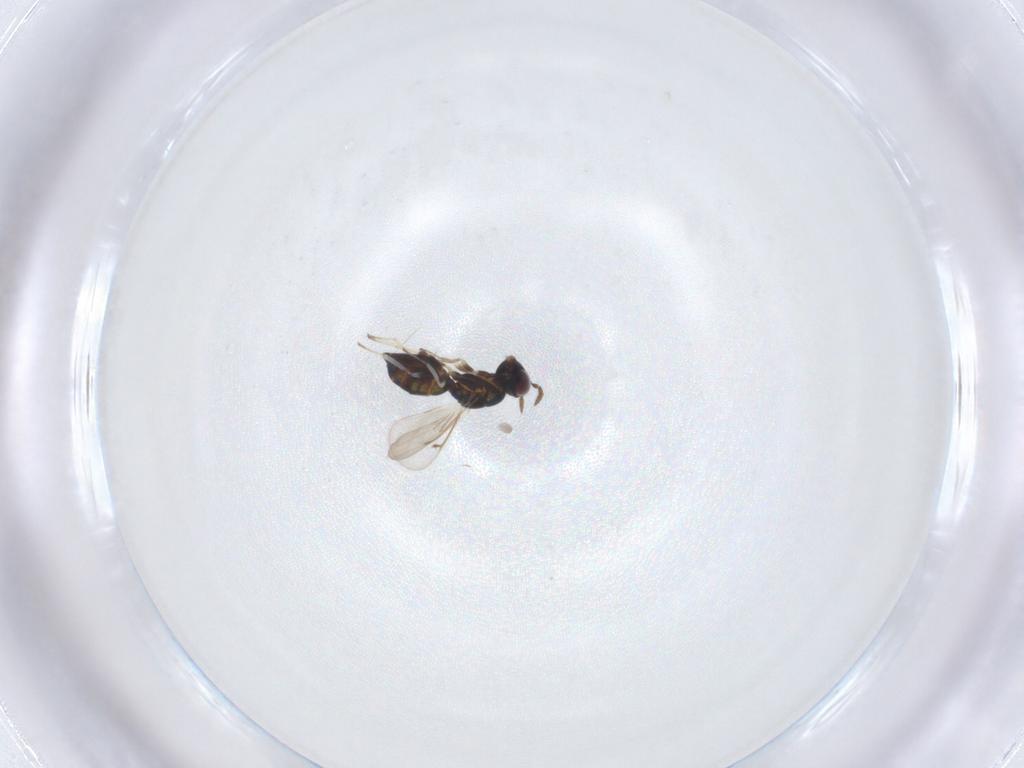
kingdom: Animalia
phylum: Arthropoda
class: Insecta
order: Hymenoptera
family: Eulophidae
